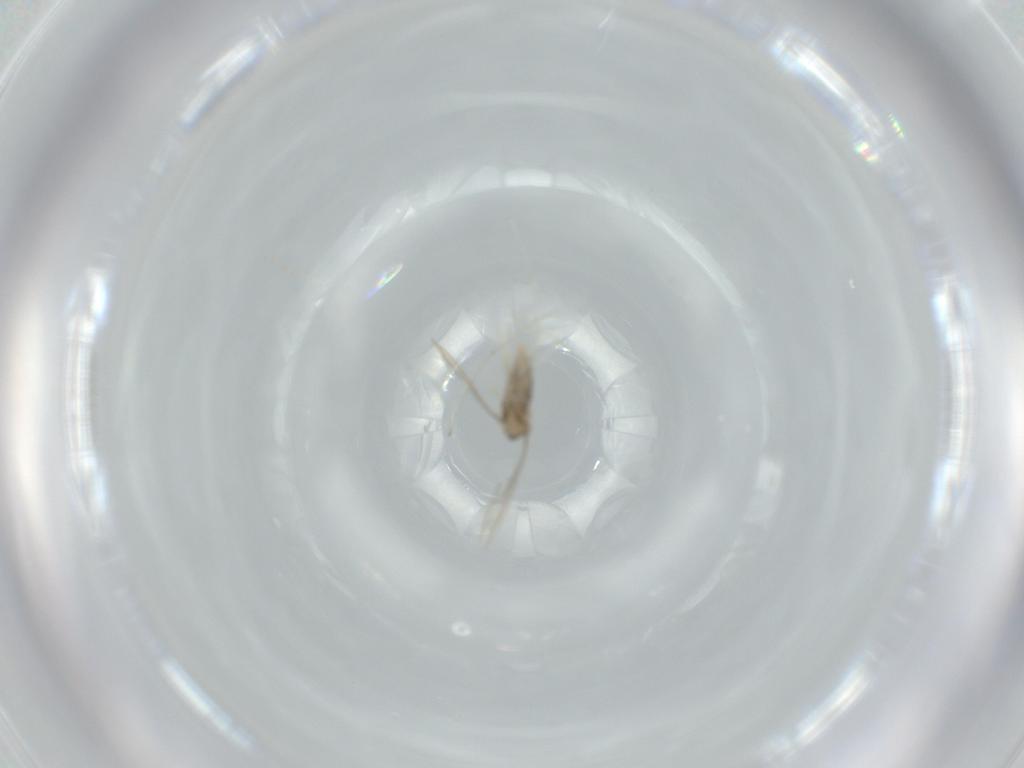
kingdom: Animalia
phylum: Arthropoda
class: Insecta
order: Diptera
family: Cecidomyiidae
